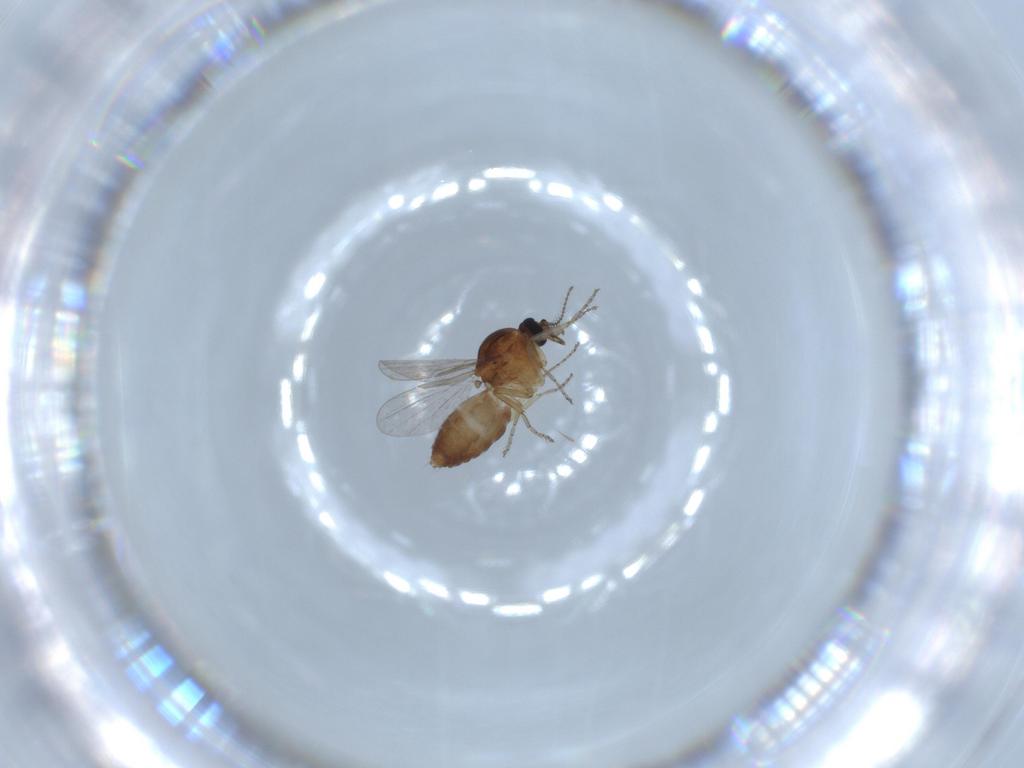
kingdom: Animalia
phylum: Arthropoda
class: Insecta
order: Diptera
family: Ceratopogonidae
